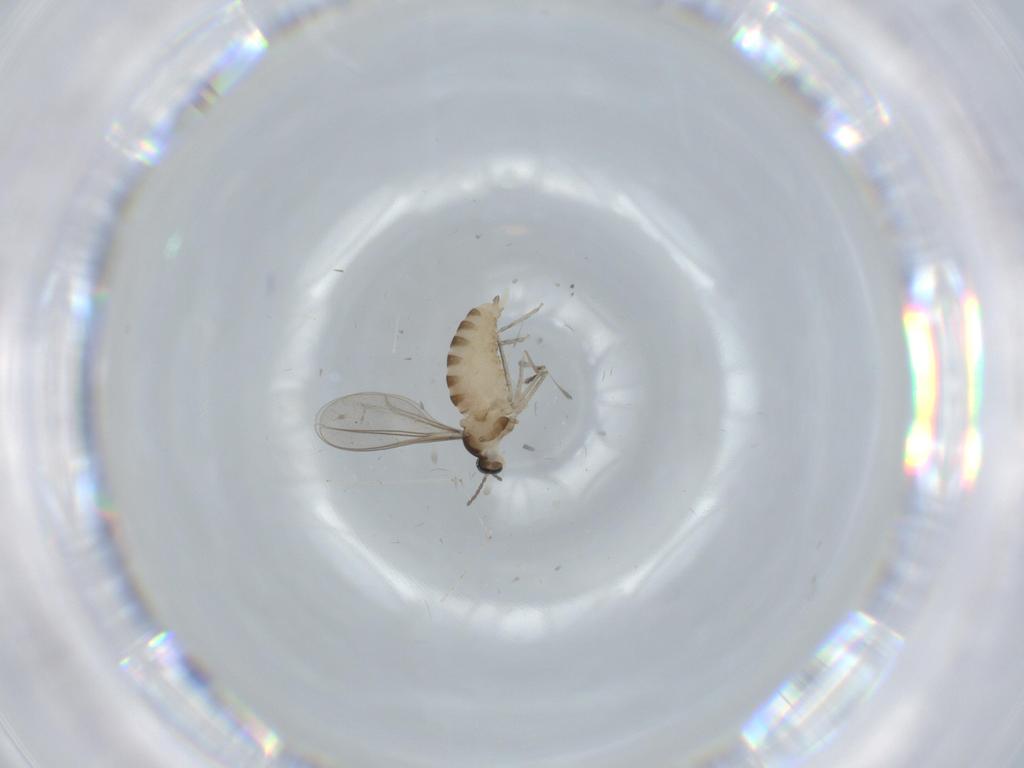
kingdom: Animalia
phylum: Arthropoda
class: Insecta
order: Diptera
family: Cecidomyiidae
